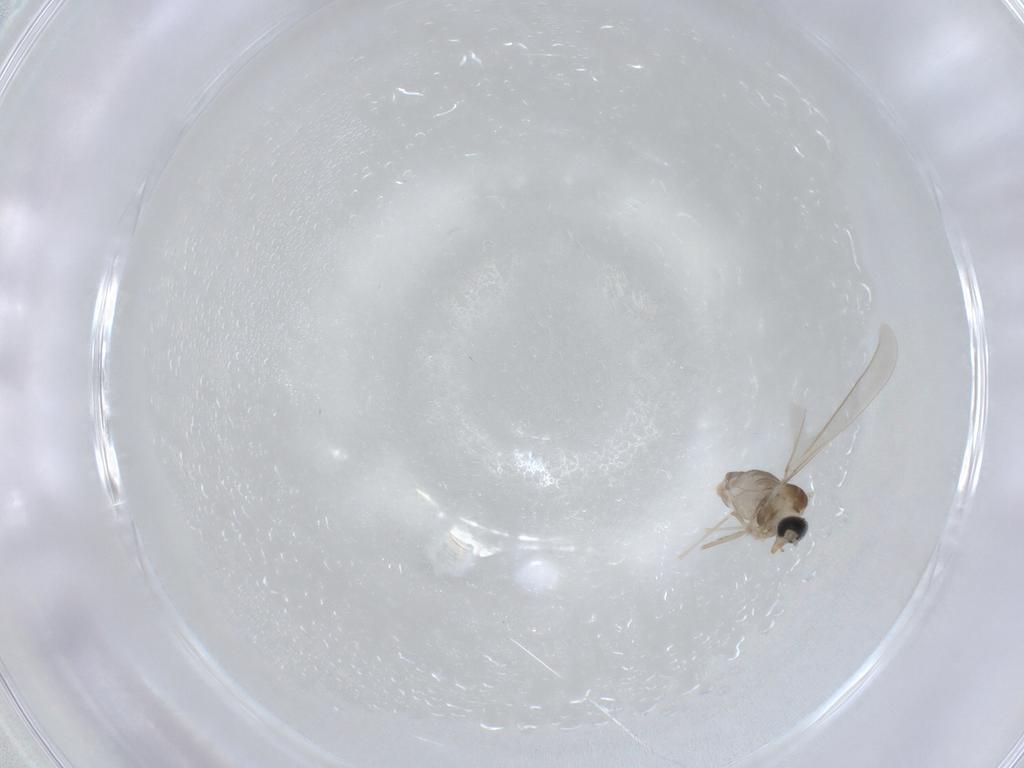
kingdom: Animalia
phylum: Arthropoda
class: Insecta
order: Diptera
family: Cecidomyiidae
